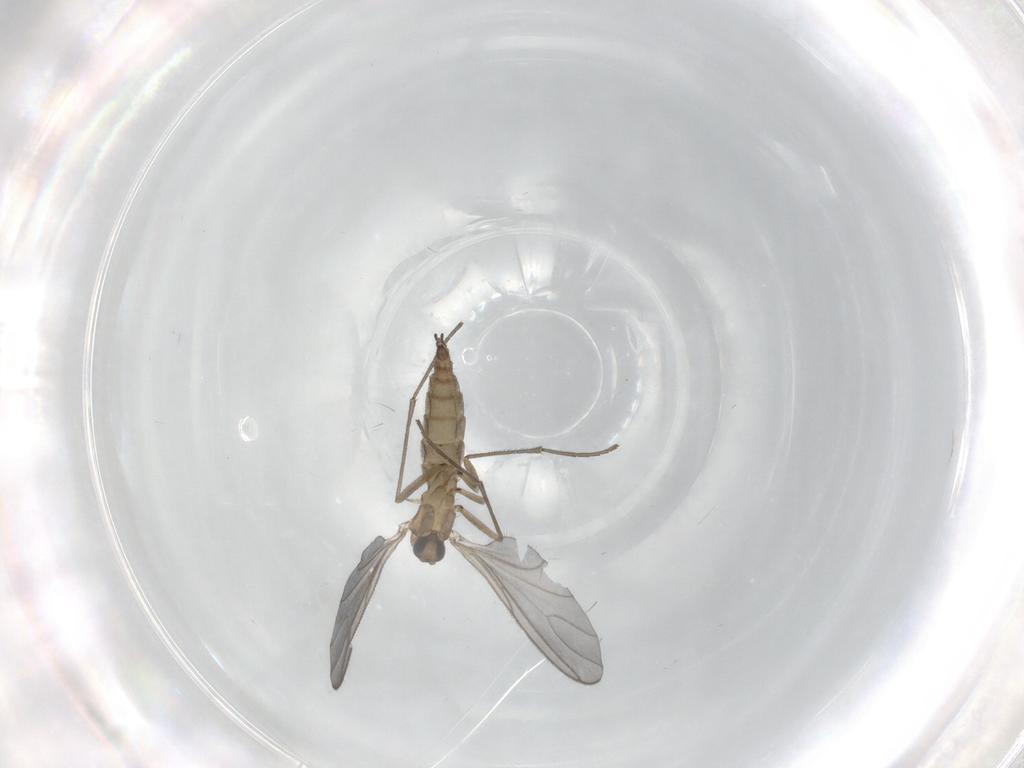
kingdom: Animalia
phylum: Arthropoda
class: Insecta
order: Diptera
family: Sciaridae
